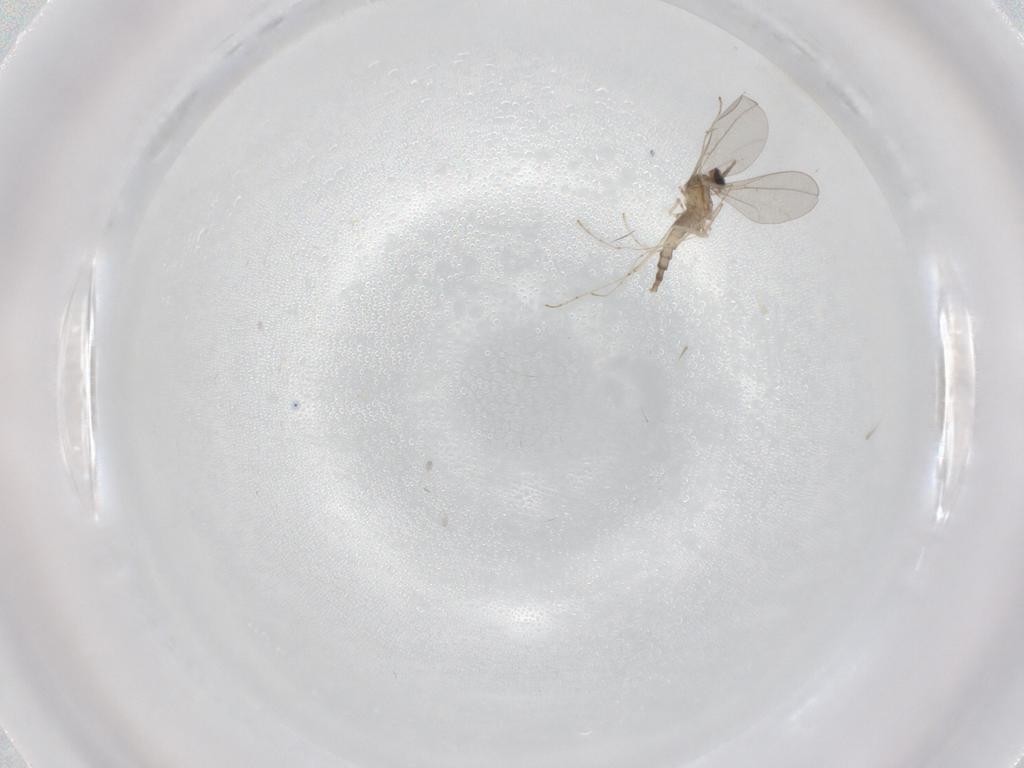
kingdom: Animalia
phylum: Arthropoda
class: Insecta
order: Diptera
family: Cecidomyiidae
